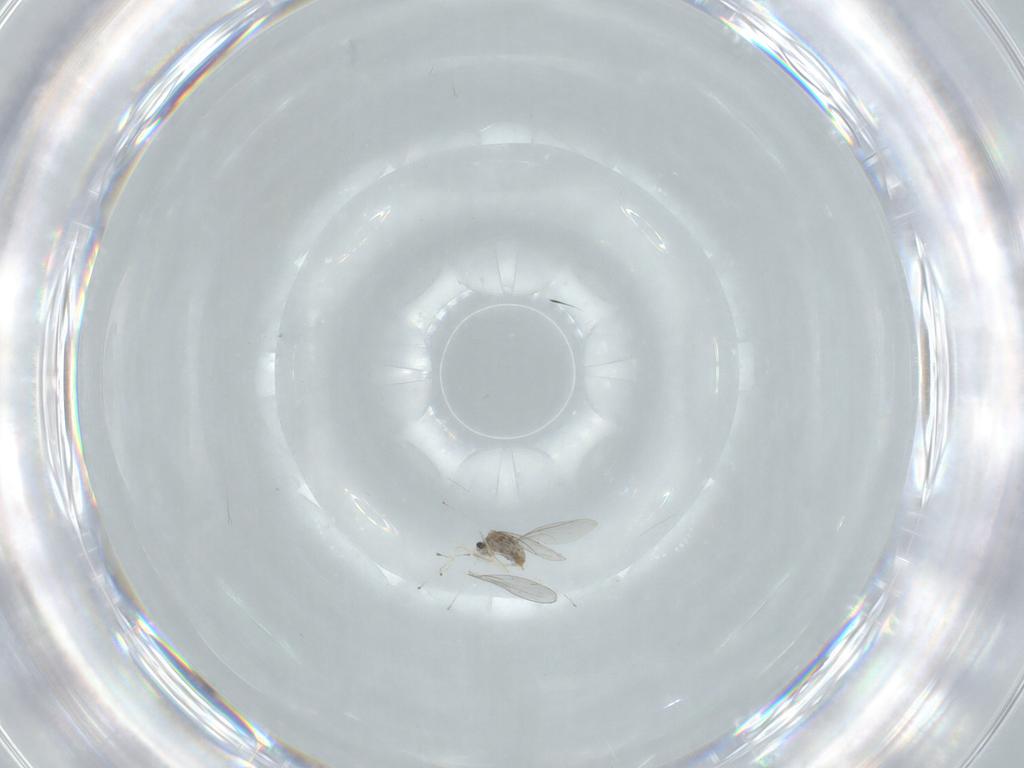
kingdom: Animalia
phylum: Arthropoda
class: Insecta
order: Diptera
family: Cecidomyiidae
